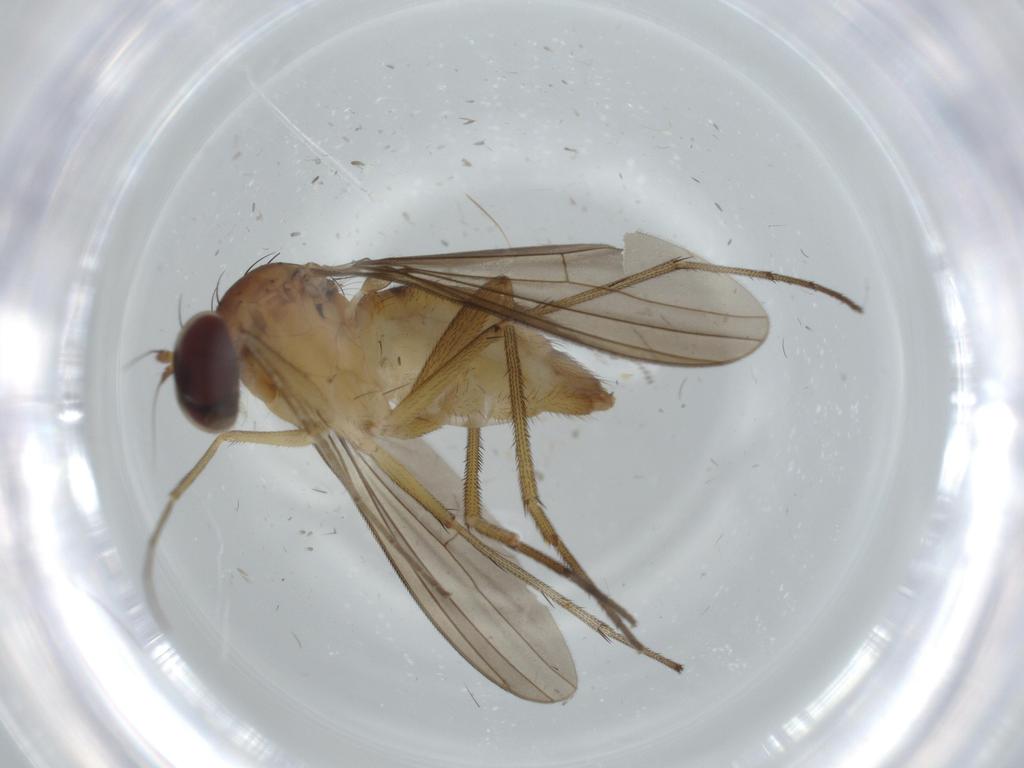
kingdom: Animalia
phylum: Arthropoda
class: Insecta
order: Diptera
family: Dolichopodidae
